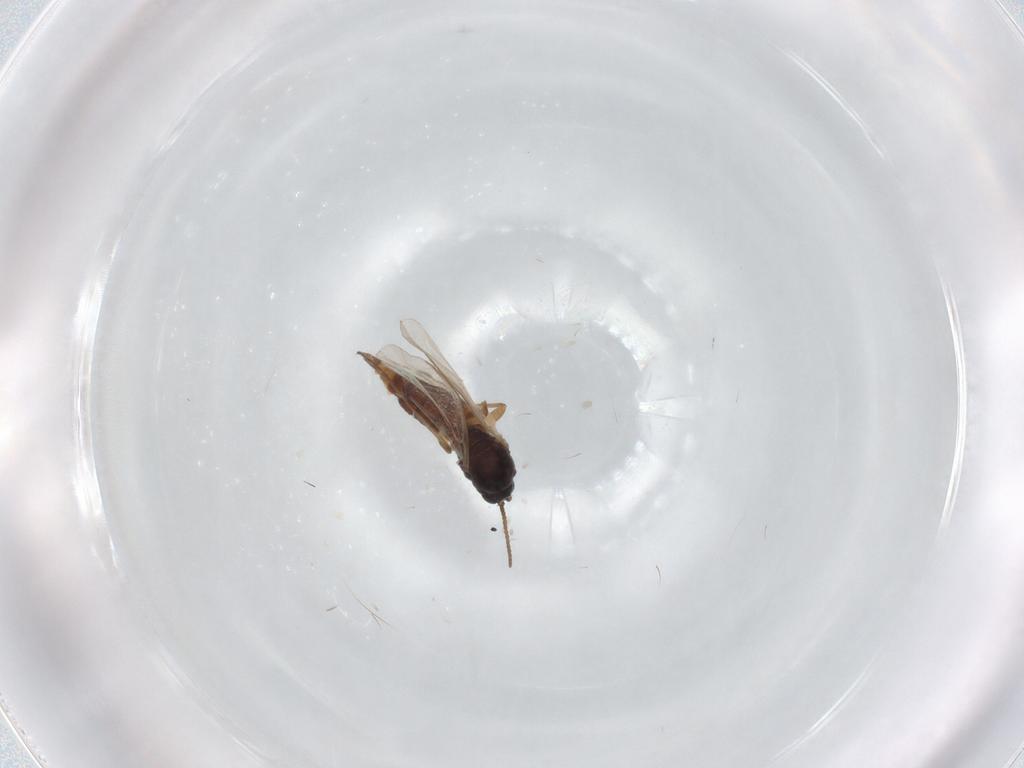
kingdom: Animalia
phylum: Arthropoda
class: Insecta
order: Diptera
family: Sciaridae
